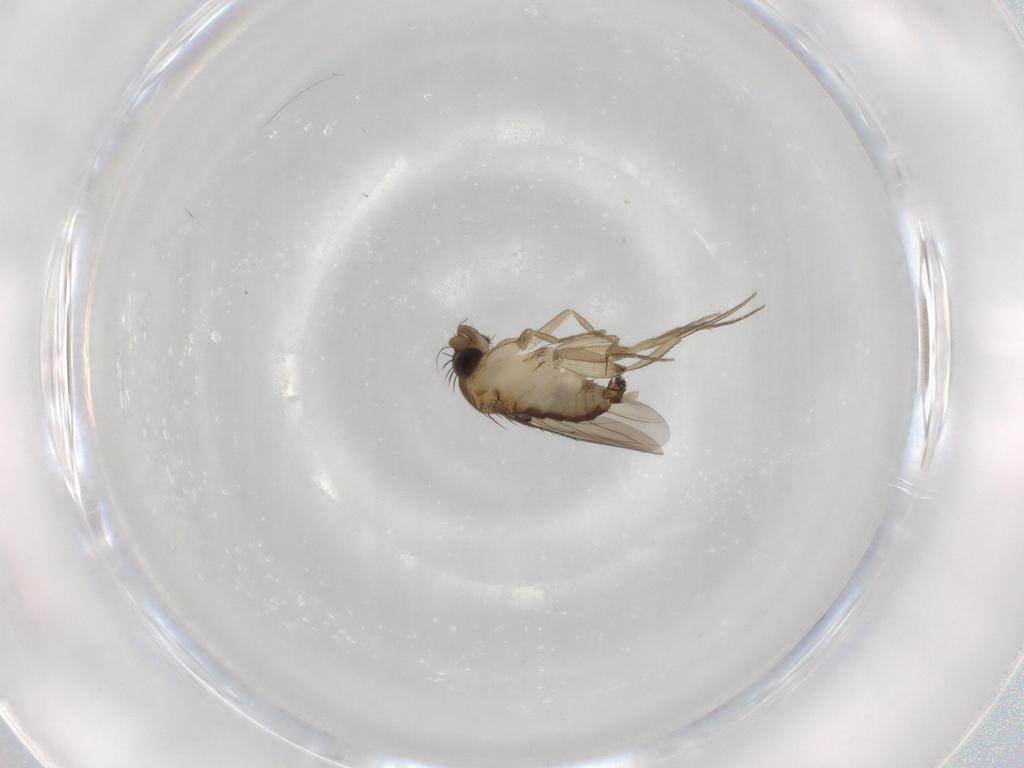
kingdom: Animalia
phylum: Arthropoda
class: Insecta
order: Diptera
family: Phoridae
